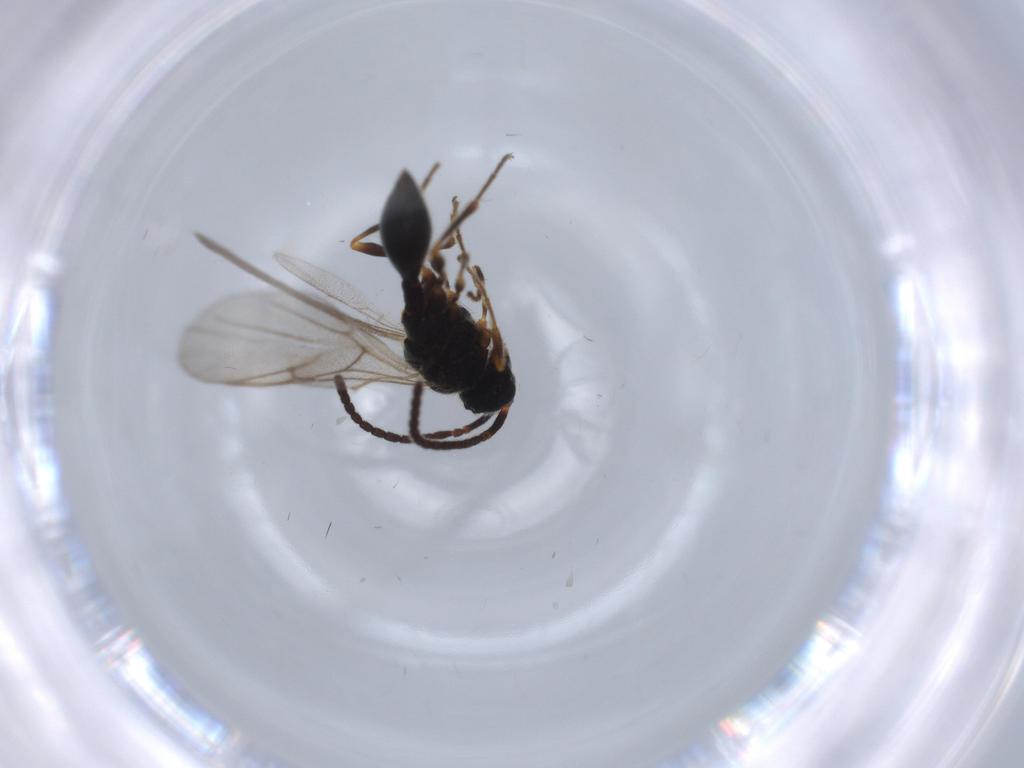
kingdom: Animalia
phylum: Arthropoda
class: Insecta
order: Hymenoptera
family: Diapriidae
